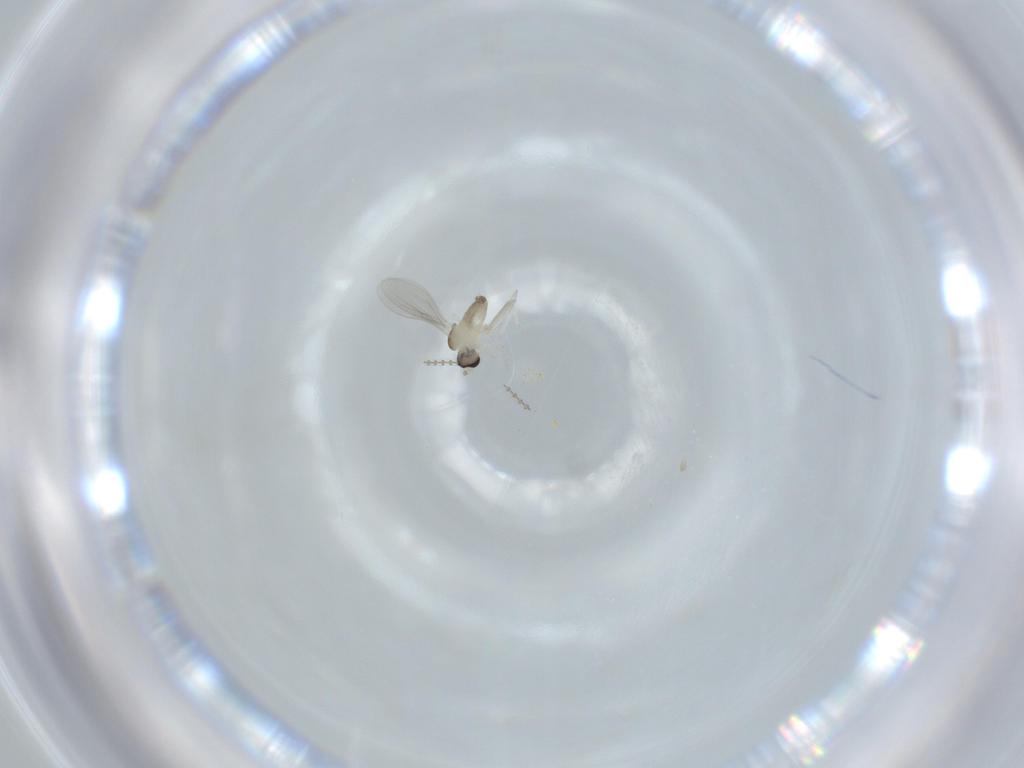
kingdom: Animalia
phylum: Arthropoda
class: Insecta
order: Diptera
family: Cecidomyiidae
